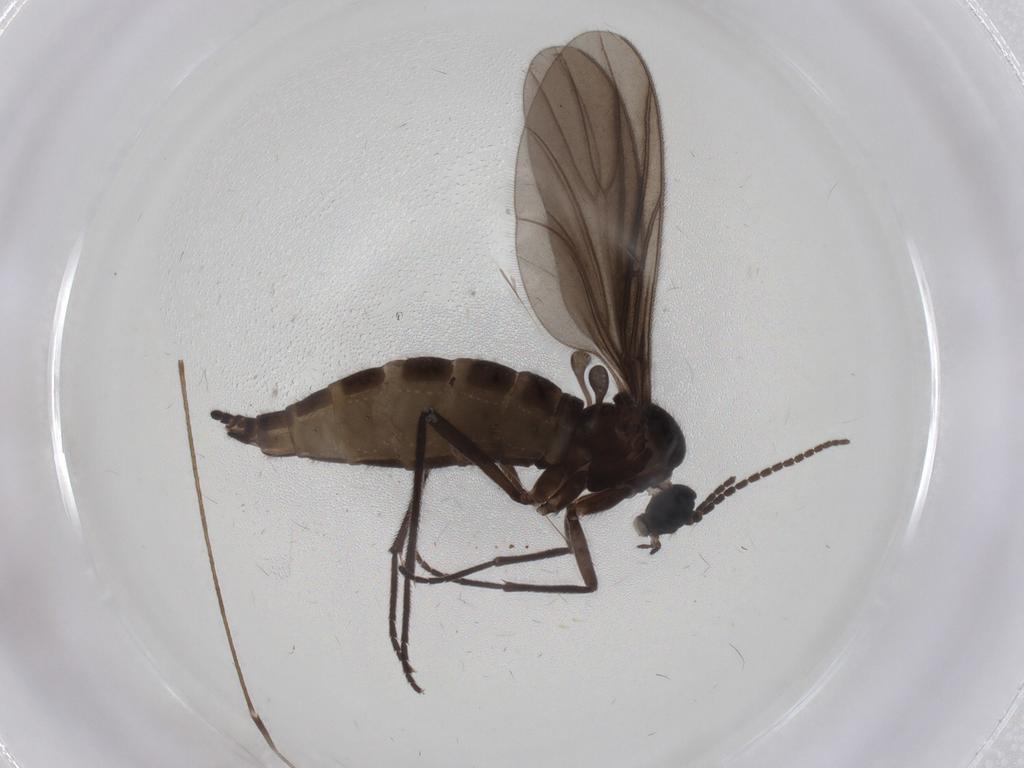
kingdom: Animalia
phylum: Arthropoda
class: Insecta
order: Diptera
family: Sciaridae
